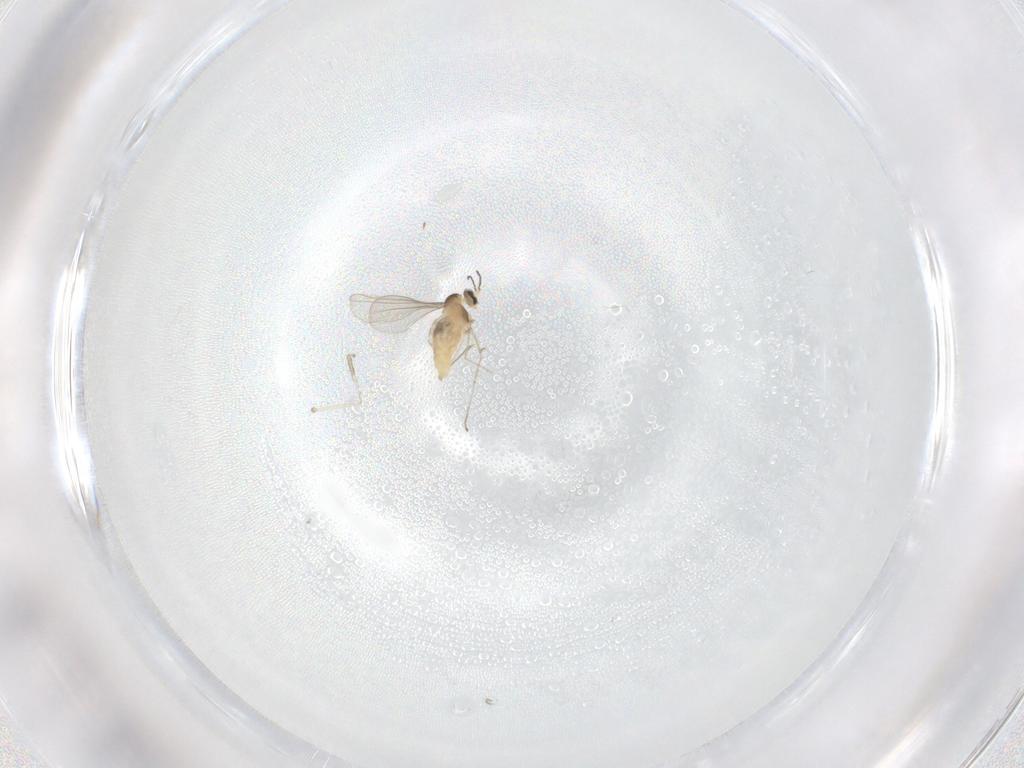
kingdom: Animalia
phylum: Arthropoda
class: Insecta
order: Diptera
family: Cecidomyiidae
